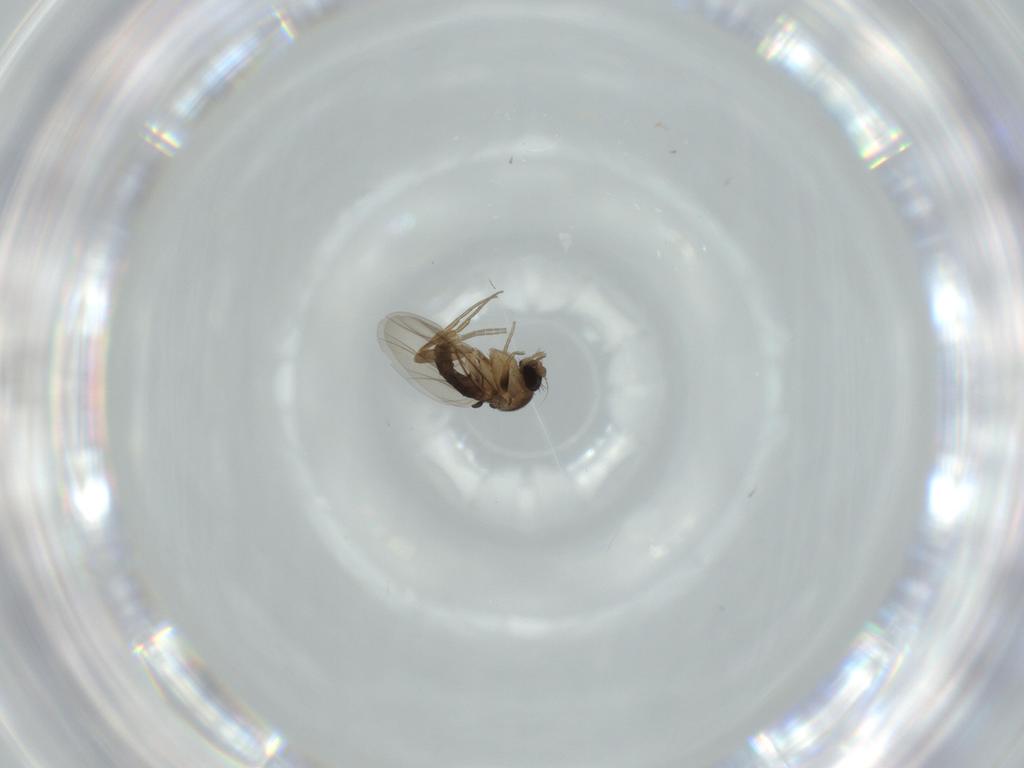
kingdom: Animalia
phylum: Arthropoda
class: Insecta
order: Diptera
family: Phoridae
